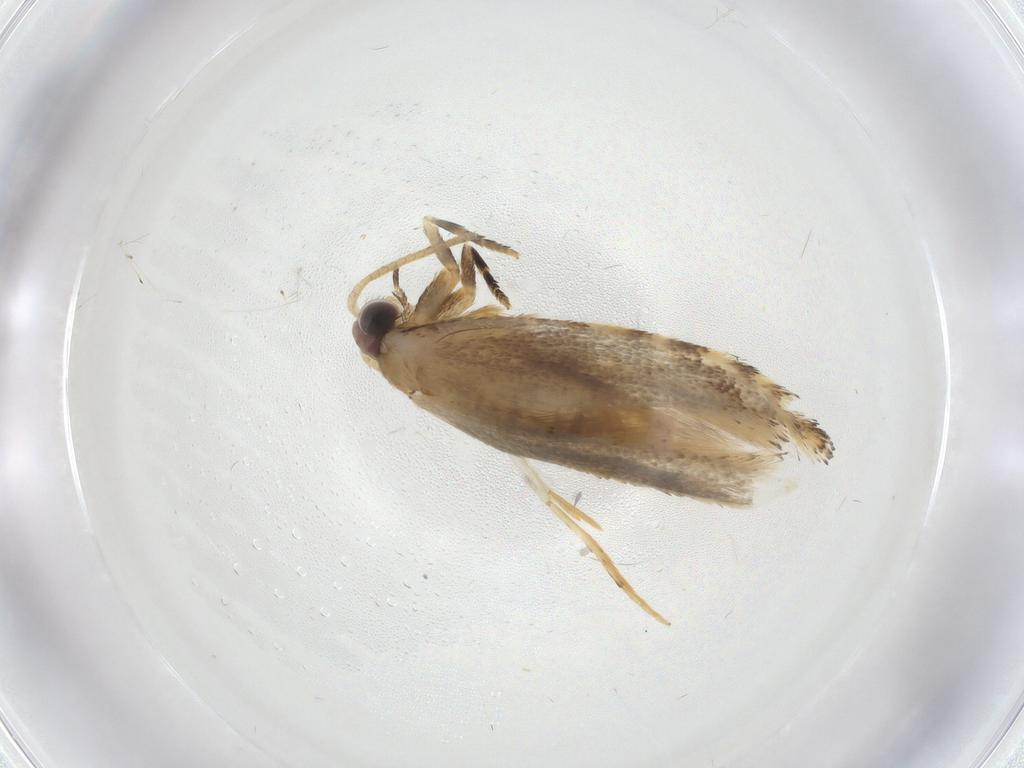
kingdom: Animalia
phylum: Arthropoda
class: Insecta
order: Lepidoptera
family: Tineidae
